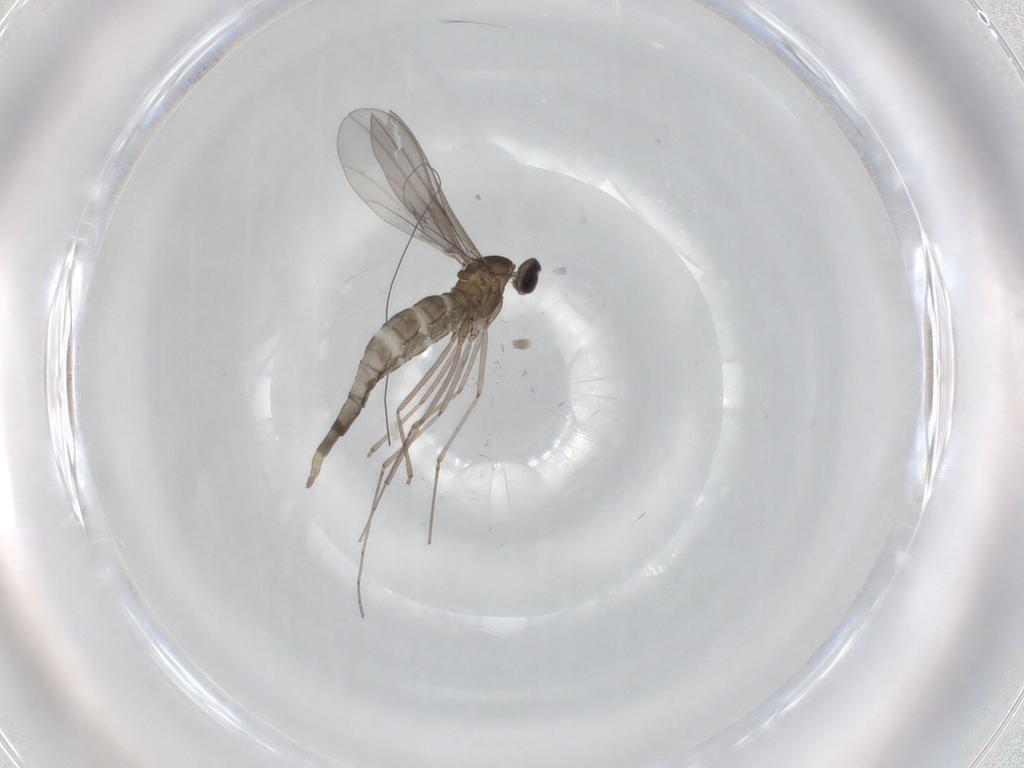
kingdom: Animalia
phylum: Arthropoda
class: Insecta
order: Diptera
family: Cecidomyiidae
